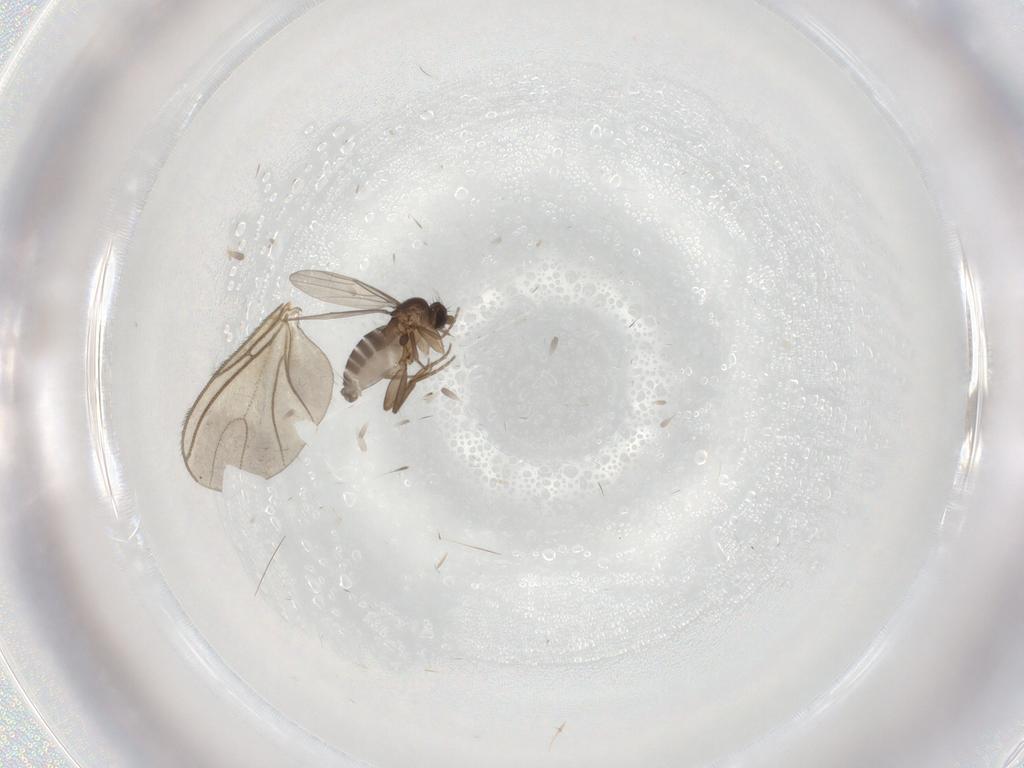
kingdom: Animalia
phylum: Arthropoda
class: Insecta
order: Diptera
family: Phoridae
